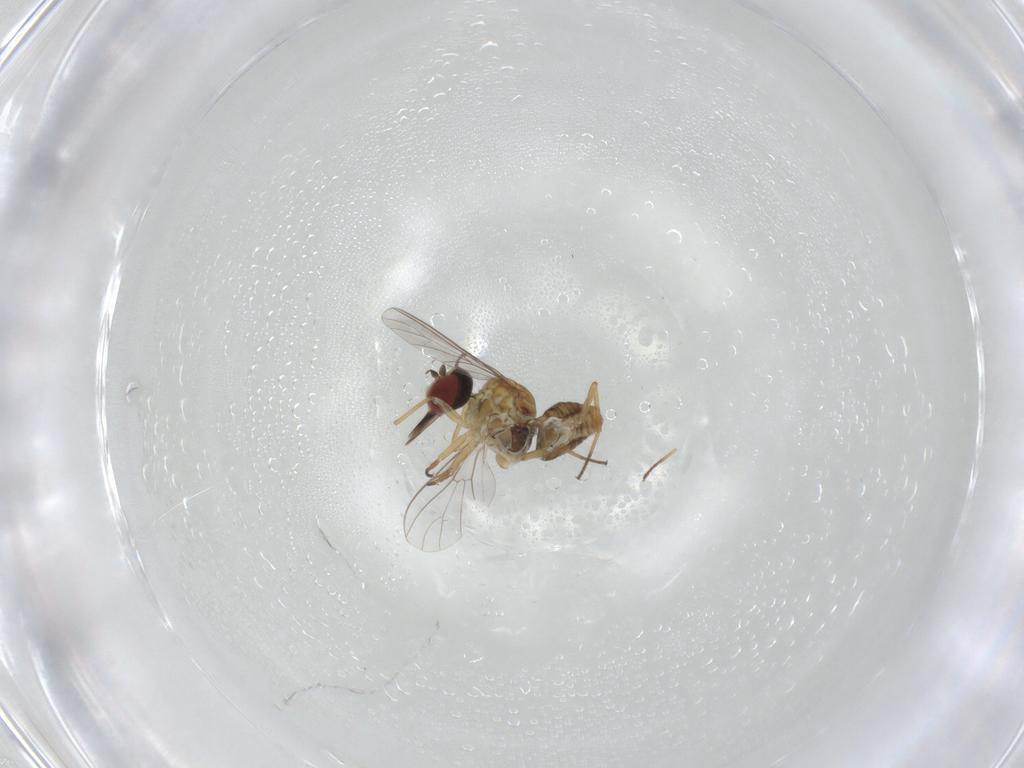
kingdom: Animalia
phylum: Arthropoda
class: Insecta
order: Diptera
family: Bombyliidae
